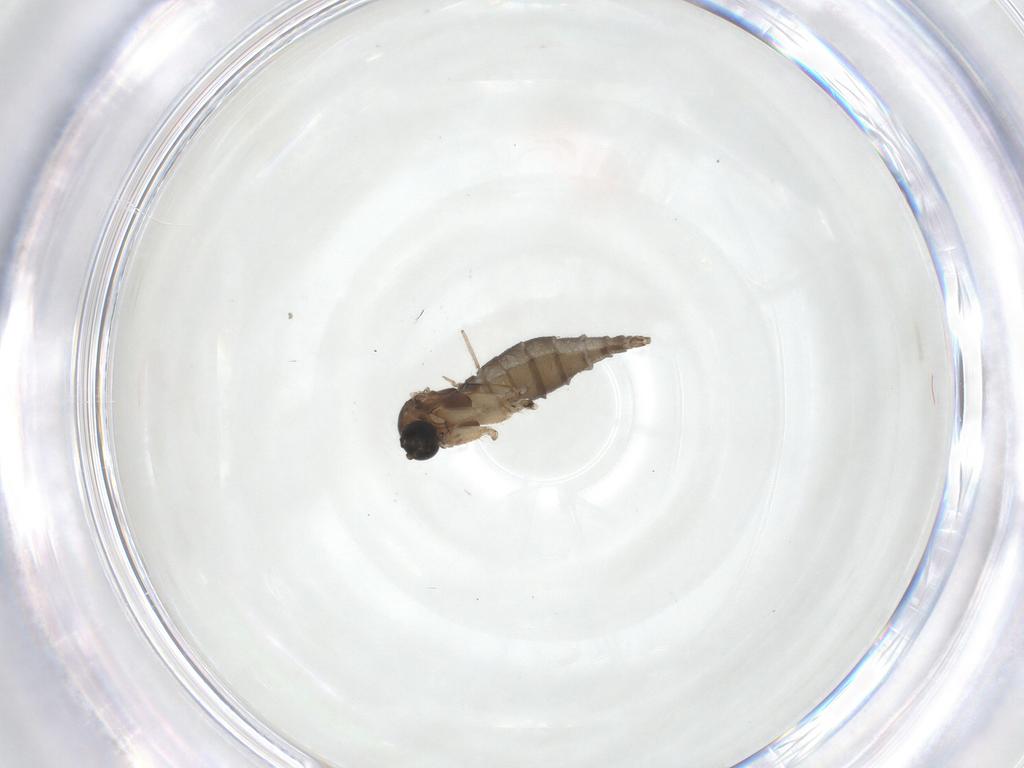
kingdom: Animalia
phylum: Arthropoda
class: Insecta
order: Diptera
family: Sciaridae
